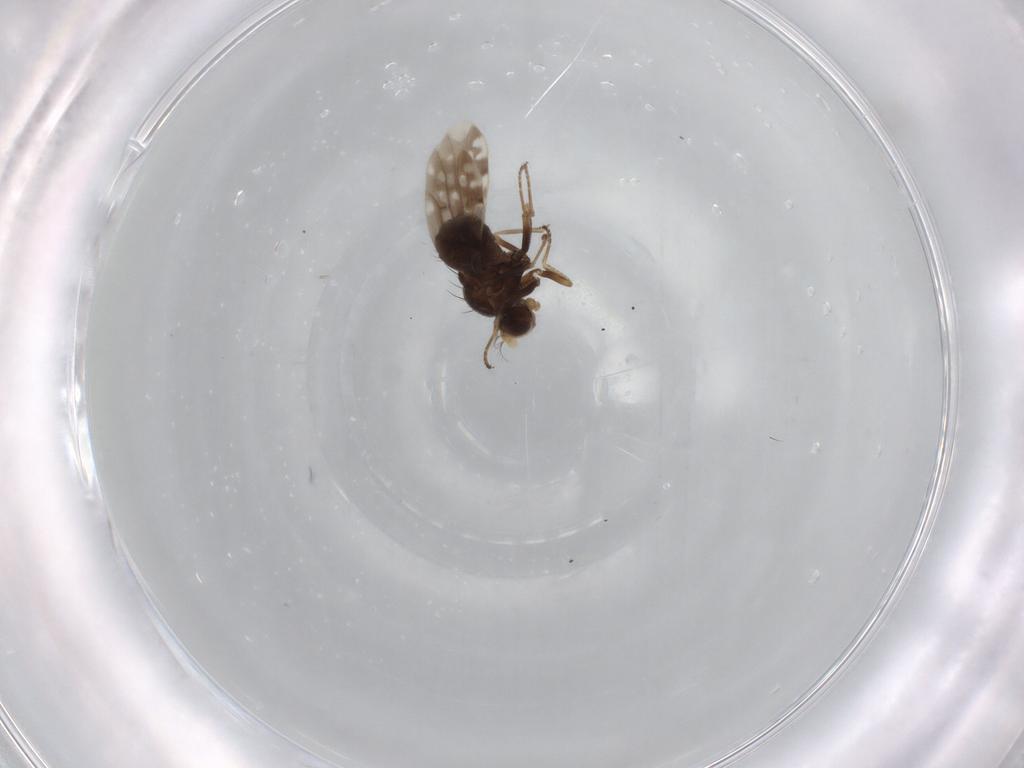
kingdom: Animalia
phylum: Arthropoda
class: Insecta
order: Diptera
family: Ephydridae
